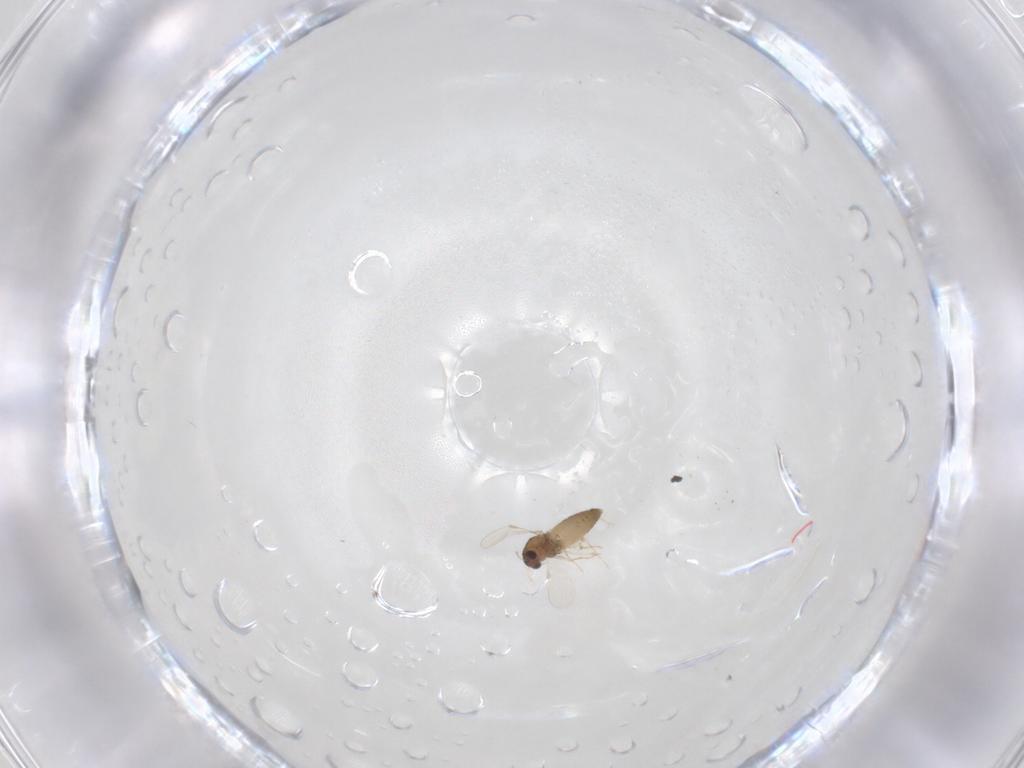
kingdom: Animalia
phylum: Arthropoda
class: Insecta
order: Diptera
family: Chironomidae
